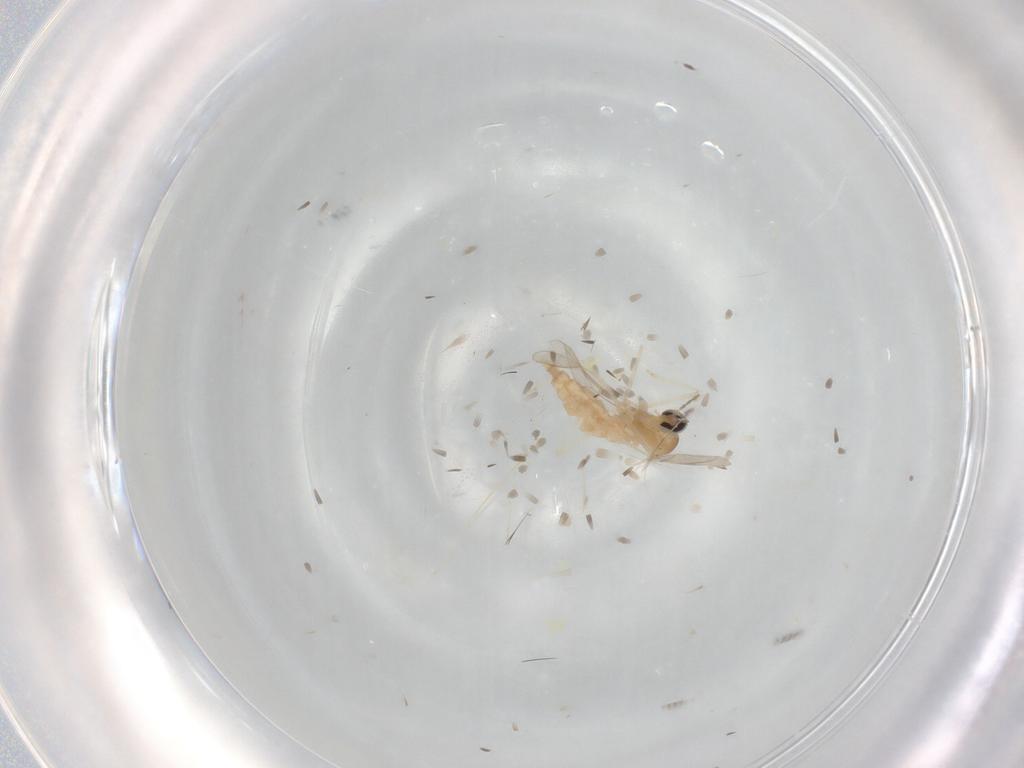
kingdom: Animalia
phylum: Arthropoda
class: Insecta
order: Diptera
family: Cecidomyiidae
